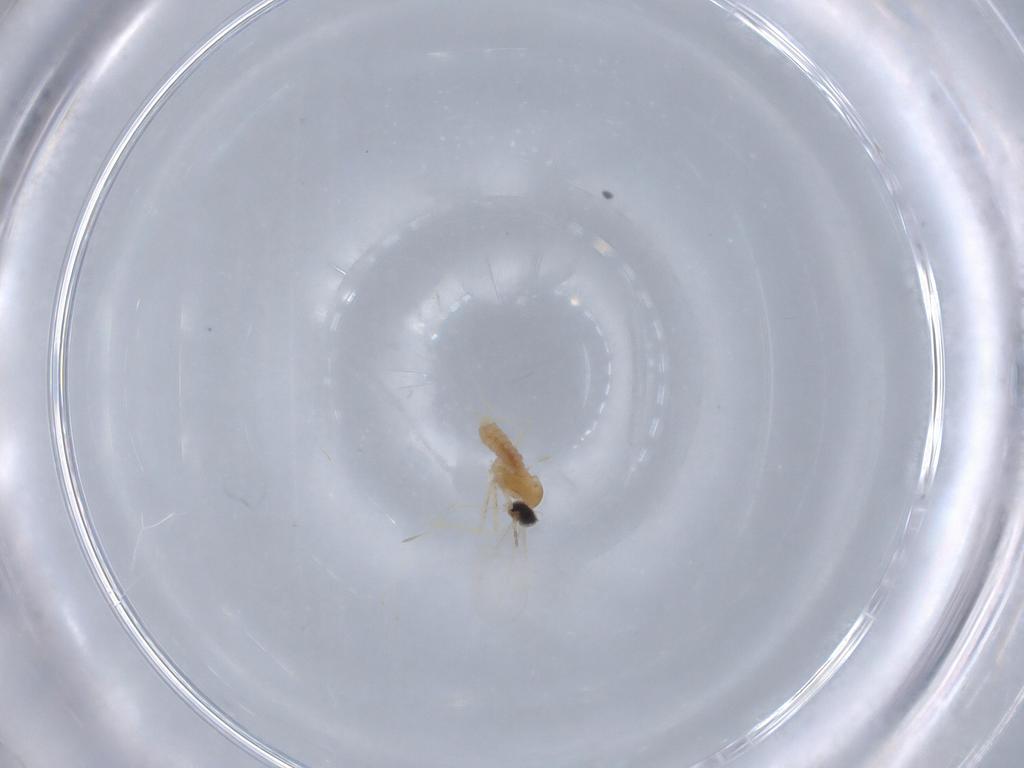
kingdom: Animalia
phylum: Arthropoda
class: Insecta
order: Diptera
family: Cecidomyiidae
